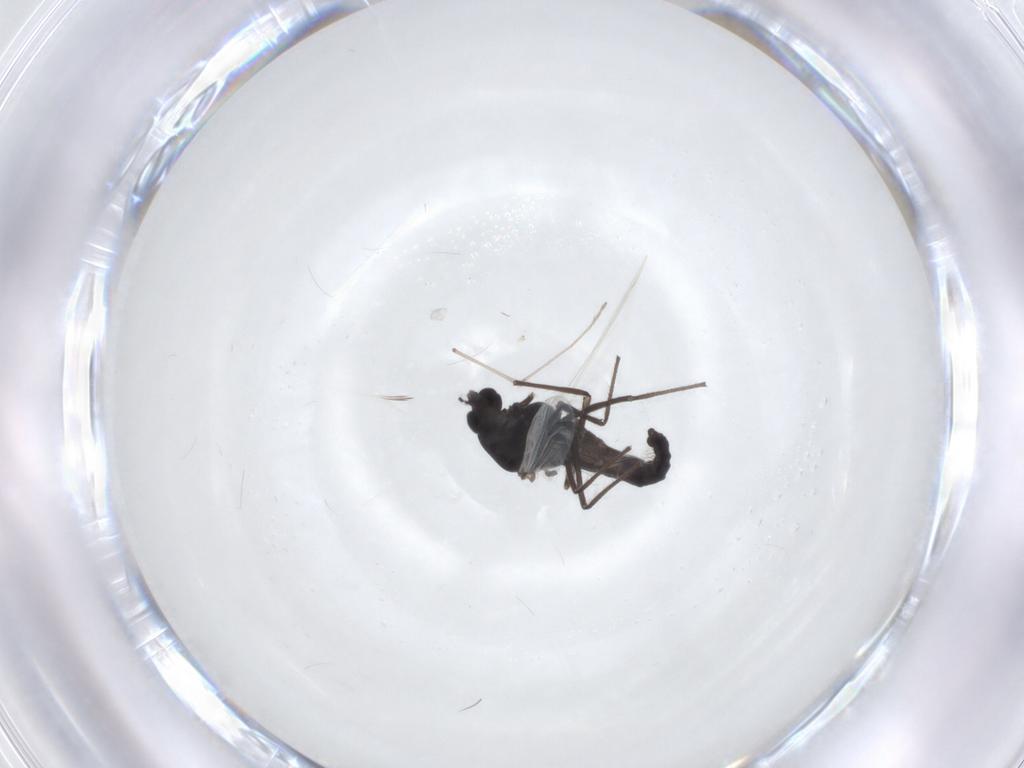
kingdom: Animalia
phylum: Arthropoda
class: Insecta
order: Diptera
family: Chironomidae
